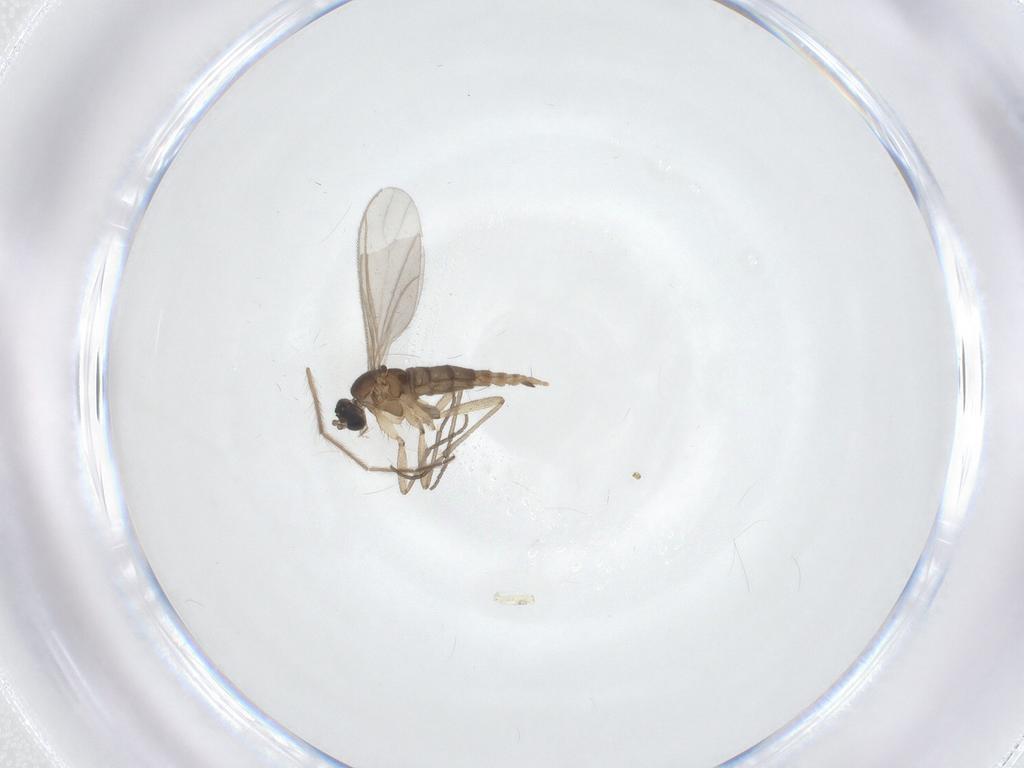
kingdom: Animalia
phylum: Arthropoda
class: Insecta
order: Diptera
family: Sciaridae
